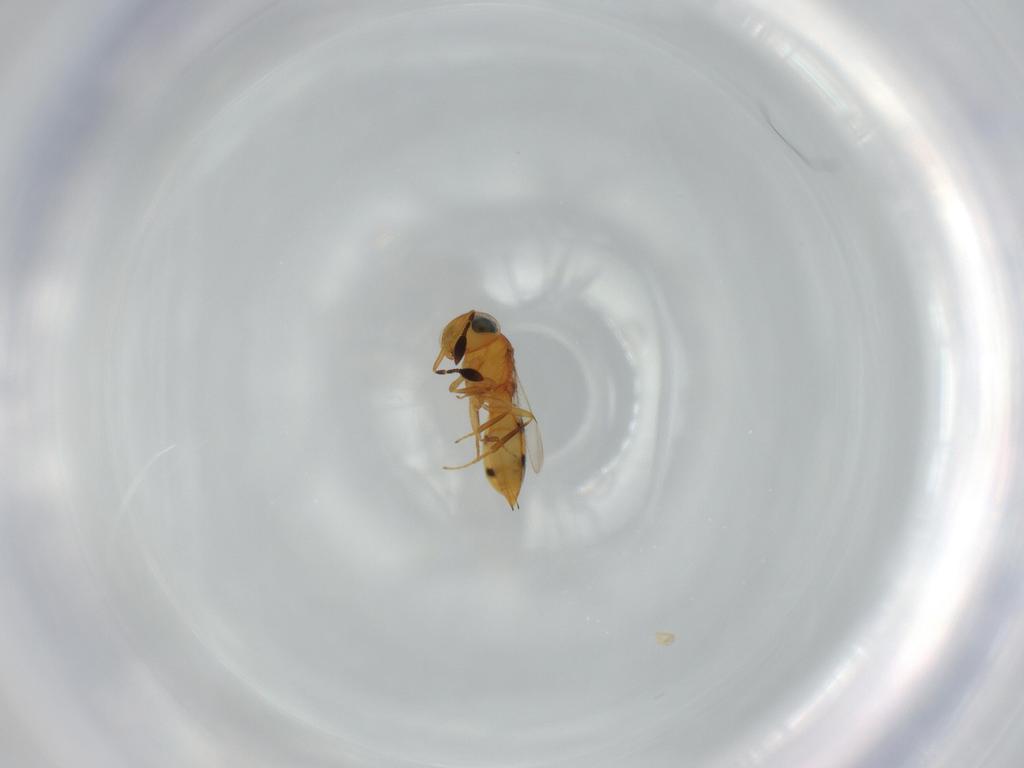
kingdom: Animalia
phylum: Arthropoda
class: Insecta
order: Hymenoptera
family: Scelionidae
